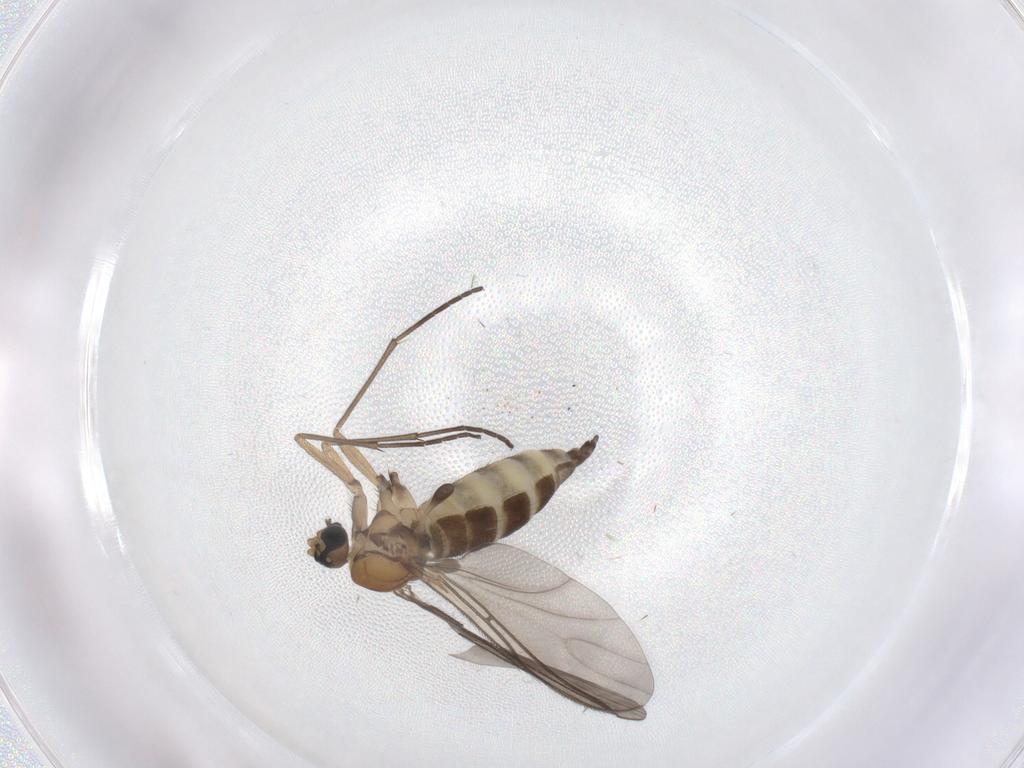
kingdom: Animalia
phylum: Arthropoda
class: Insecta
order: Diptera
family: Sciaridae
